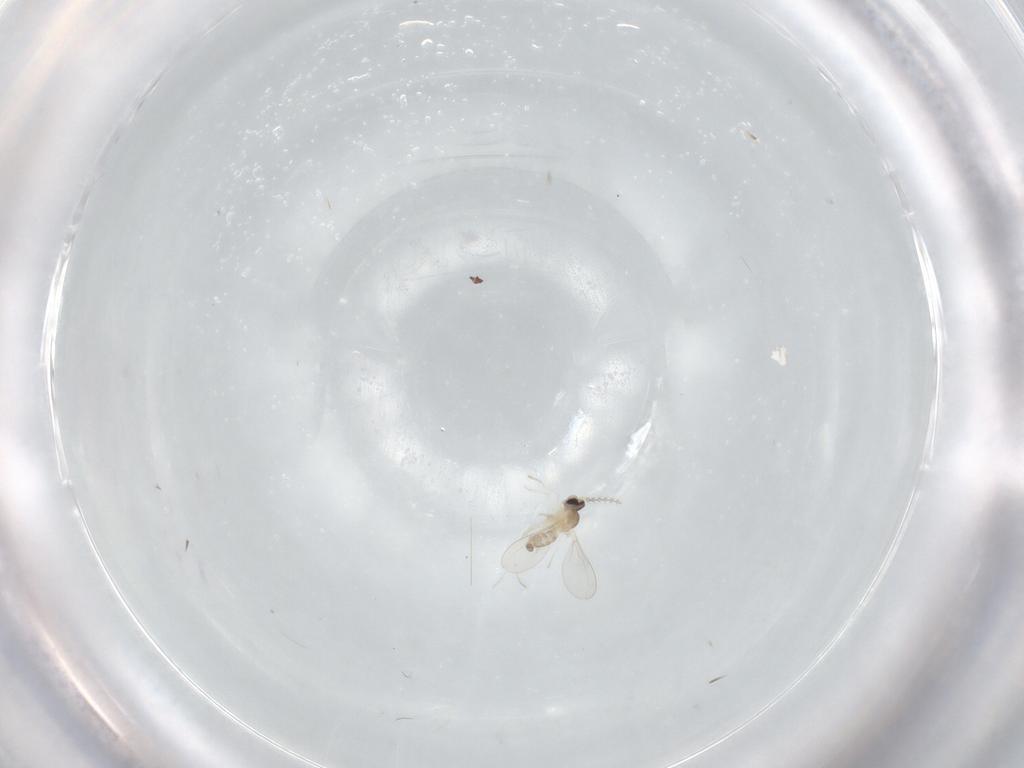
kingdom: Animalia
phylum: Arthropoda
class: Insecta
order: Diptera
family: Cecidomyiidae
